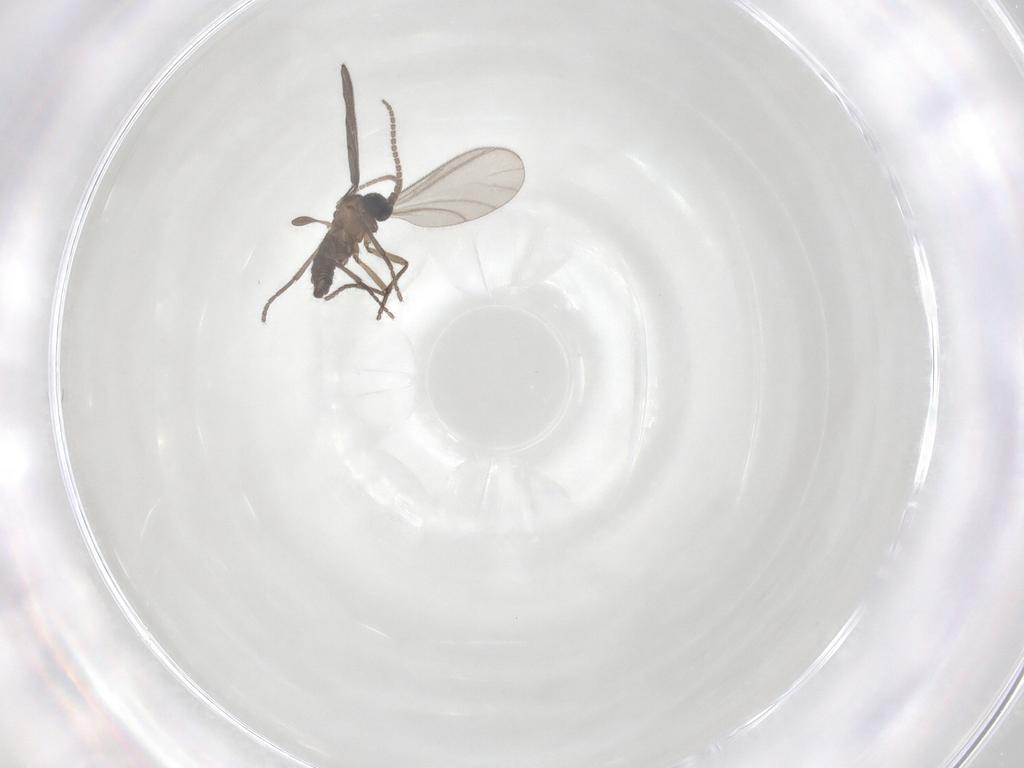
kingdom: Animalia
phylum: Arthropoda
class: Insecta
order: Diptera
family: Sciaridae
